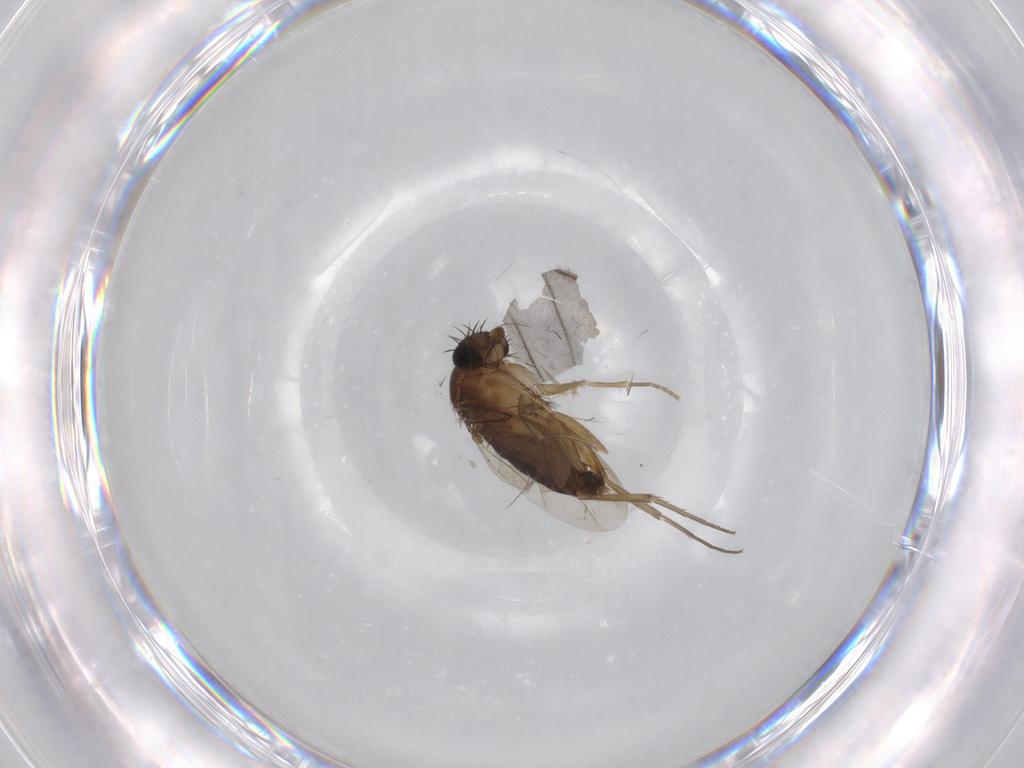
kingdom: Animalia
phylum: Arthropoda
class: Insecta
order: Diptera
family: Phoridae
